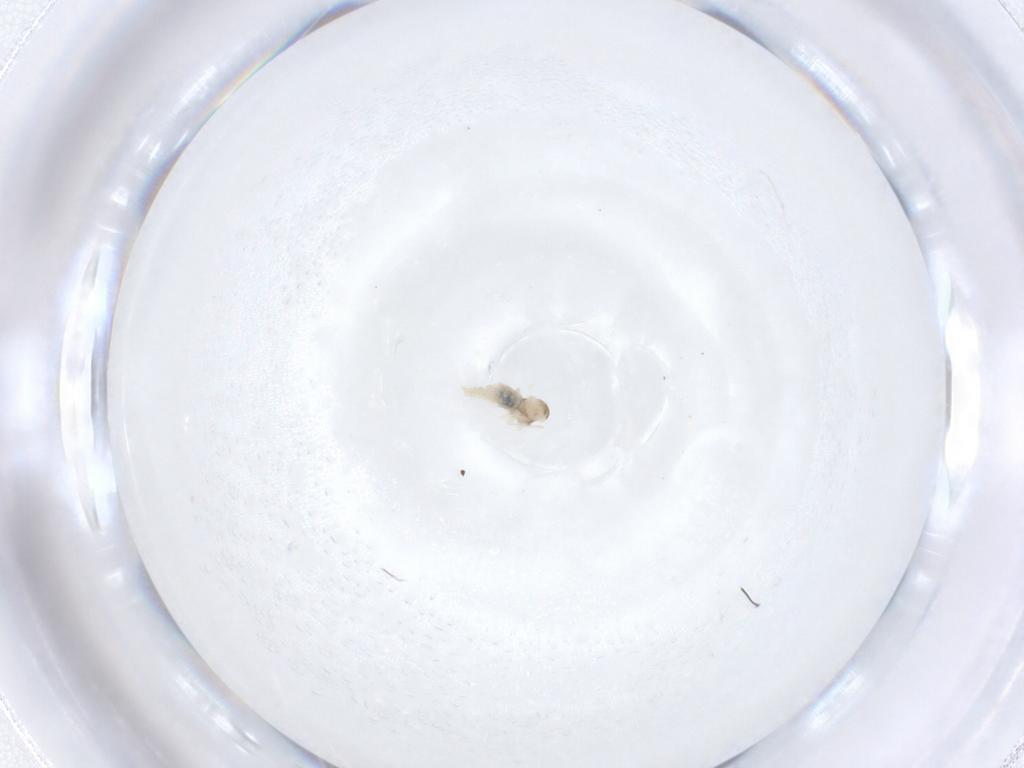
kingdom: Animalia
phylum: Arthropoda
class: Insecta
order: Diptera
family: Cecidomyiidae
